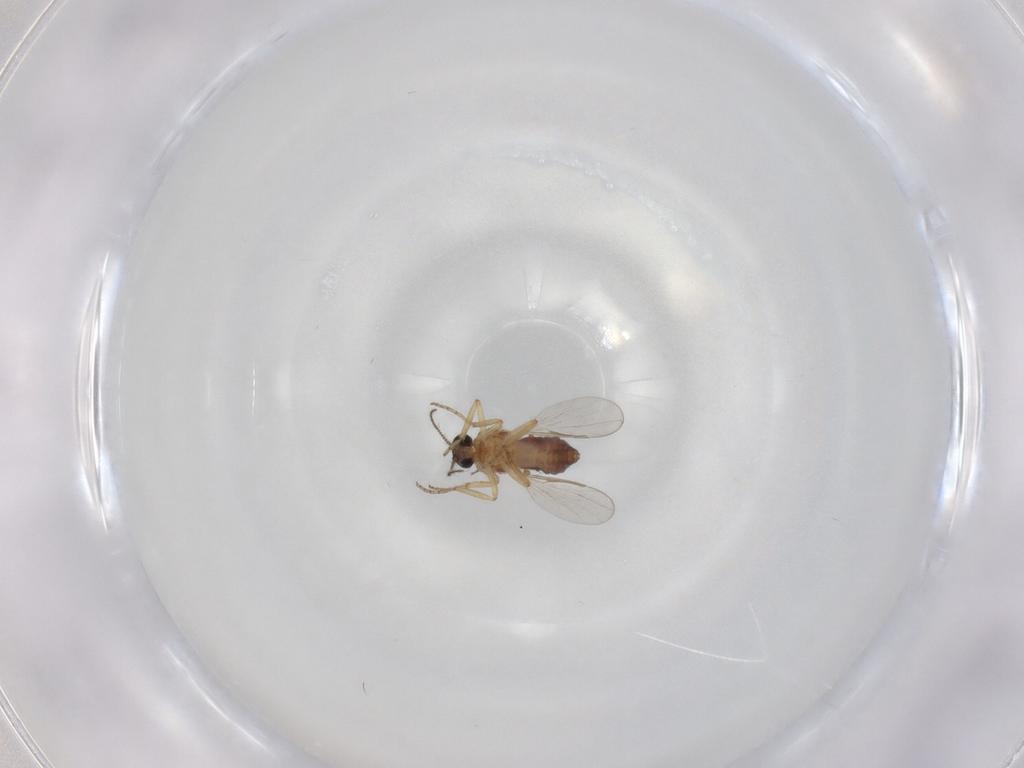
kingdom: Animalia
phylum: Arthropoda
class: Insecta
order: Diptera
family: Ceratopogonidae
